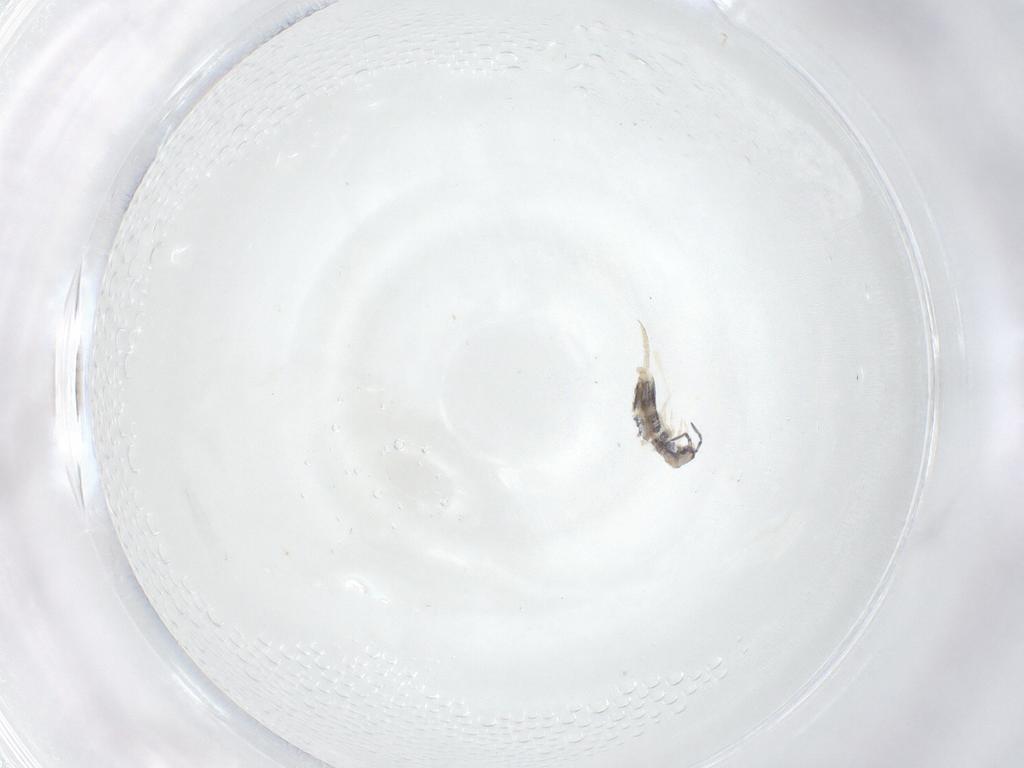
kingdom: Animalia
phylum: Arthropoda
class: Collembola
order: Entomobryomorpha
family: Entomobryidae
